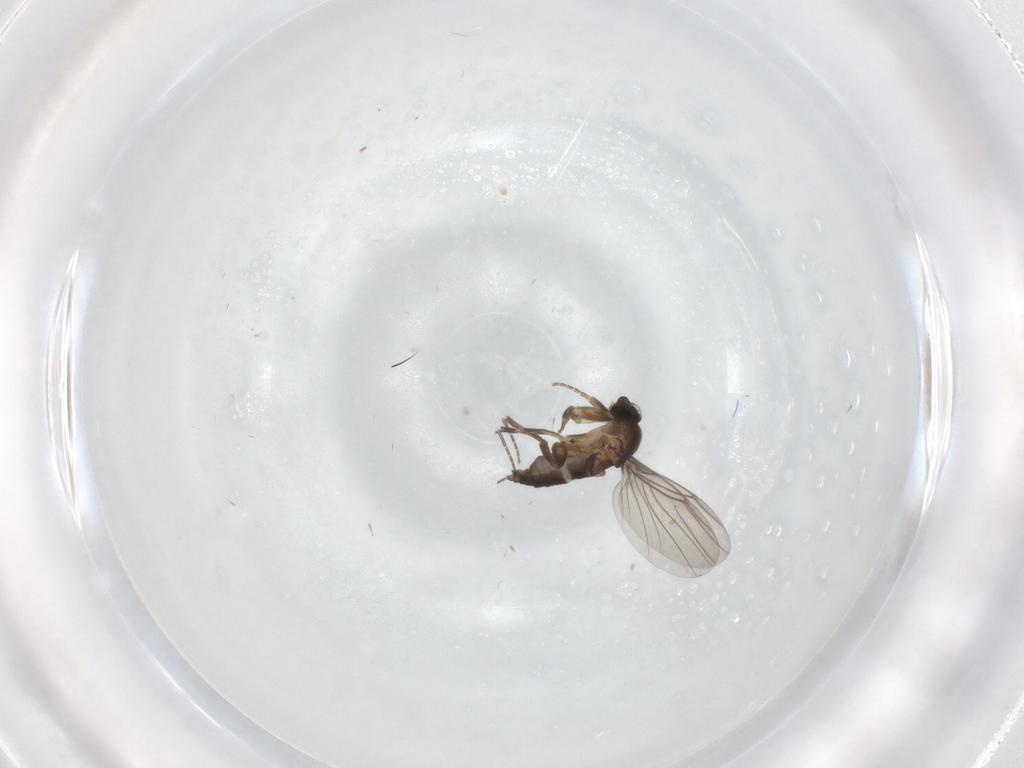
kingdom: Animalia
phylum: Arthropoda
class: Insecta
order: Diptera
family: Phoridae
